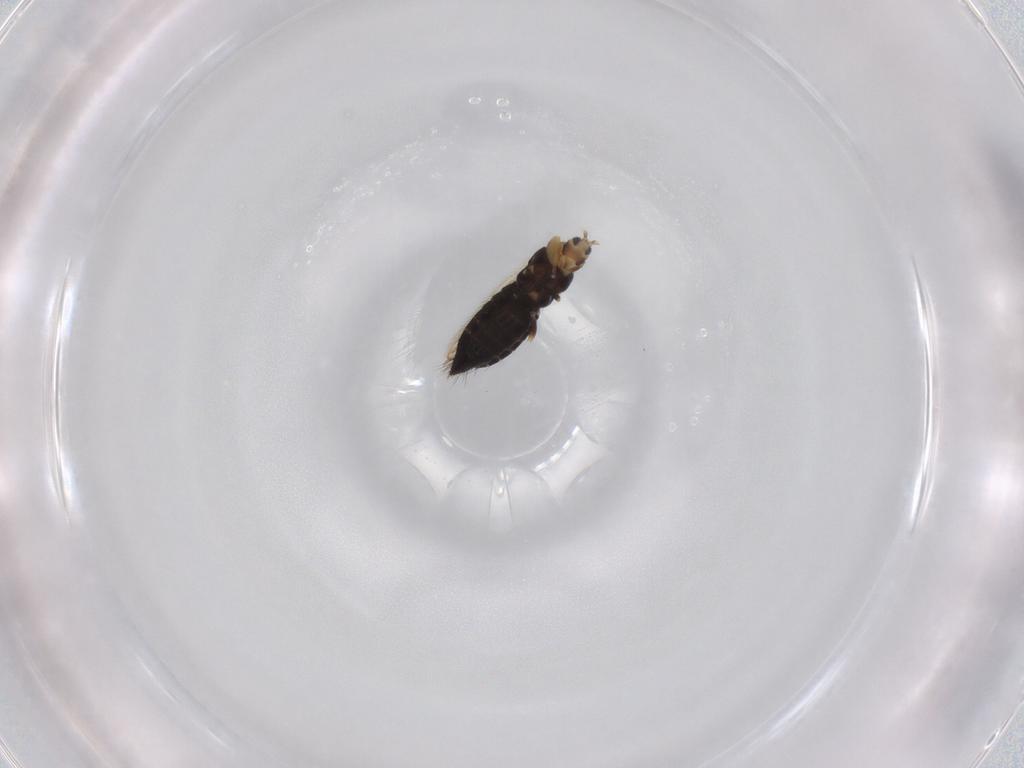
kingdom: Animalia
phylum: Arthropoda
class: Insecta
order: Thysanoptera
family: Melanthripidae
